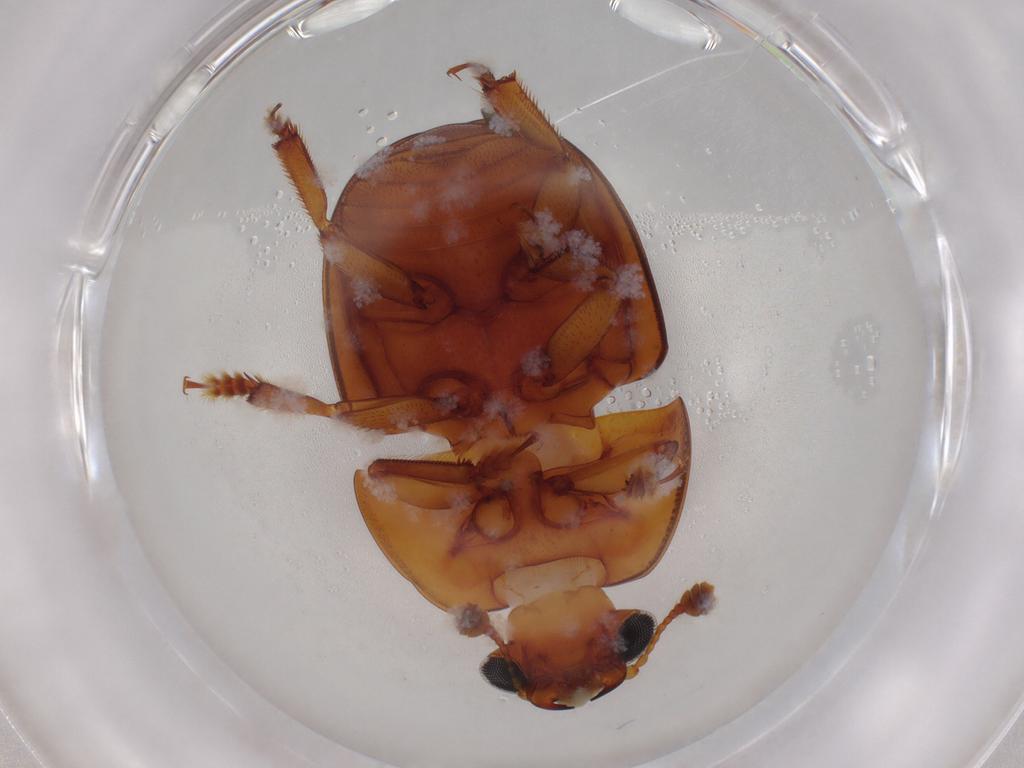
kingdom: Animalia
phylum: Arthropoda
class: Insecta
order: Coleoptera
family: Nitidulidae
